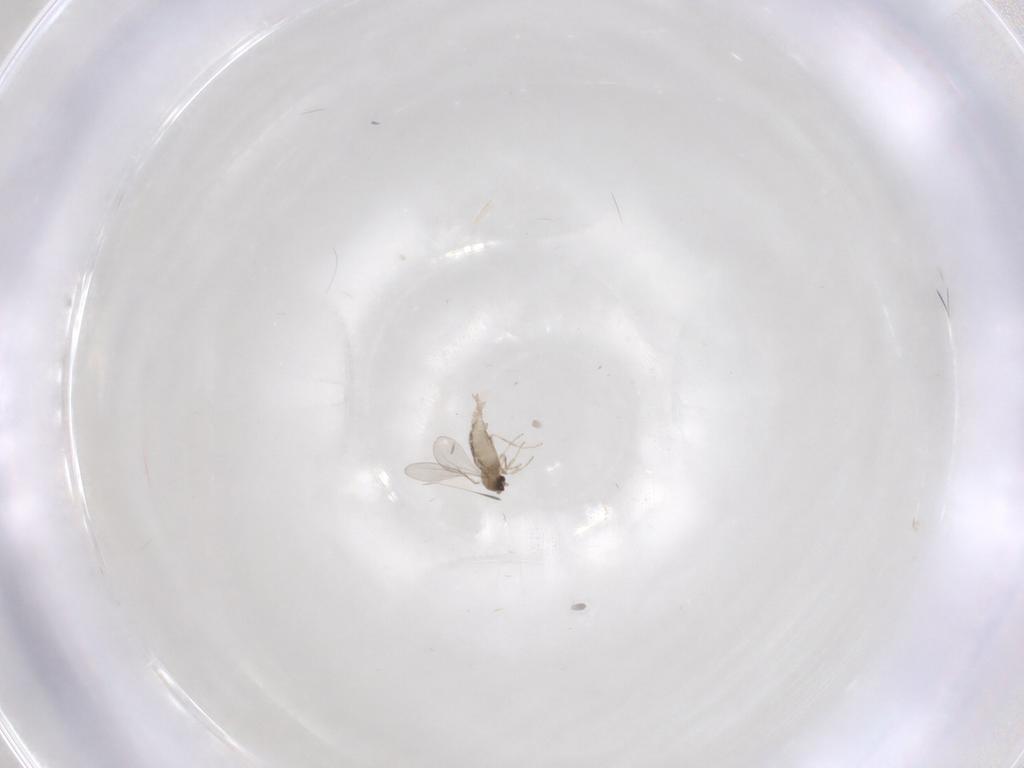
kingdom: Animalia
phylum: Arthropoda
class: Insecta
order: Diptera
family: Cecidomyiidae
